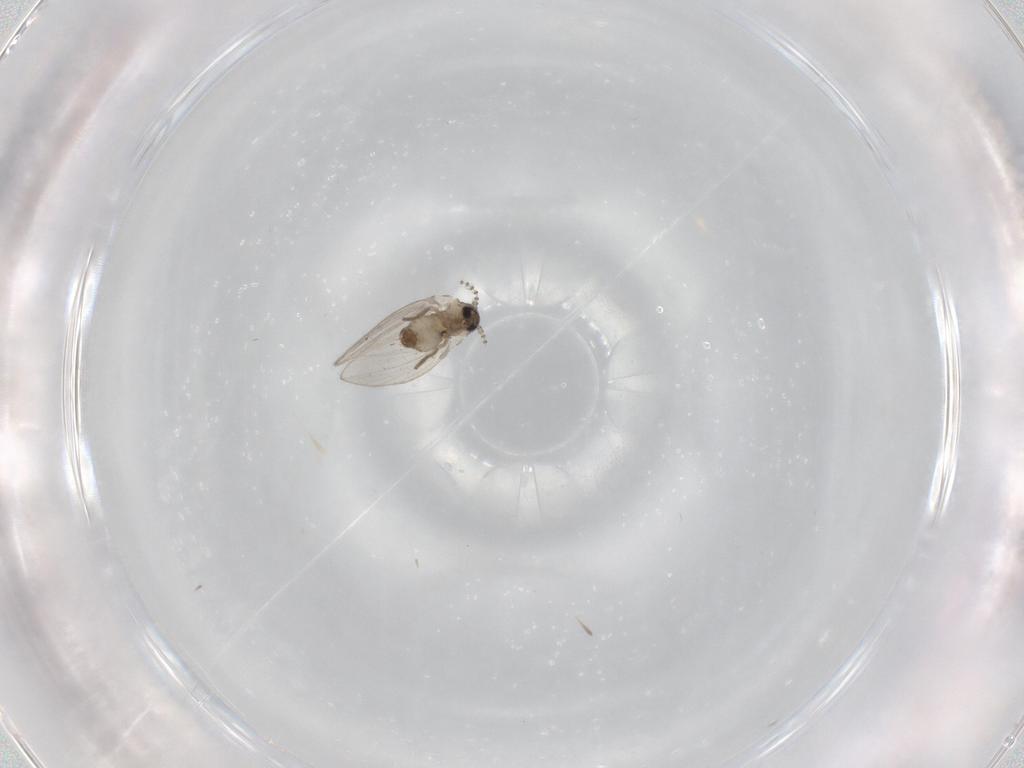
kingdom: Animalia
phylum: Arthropoda
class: Insecta
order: Diptera
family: Psychodidae
